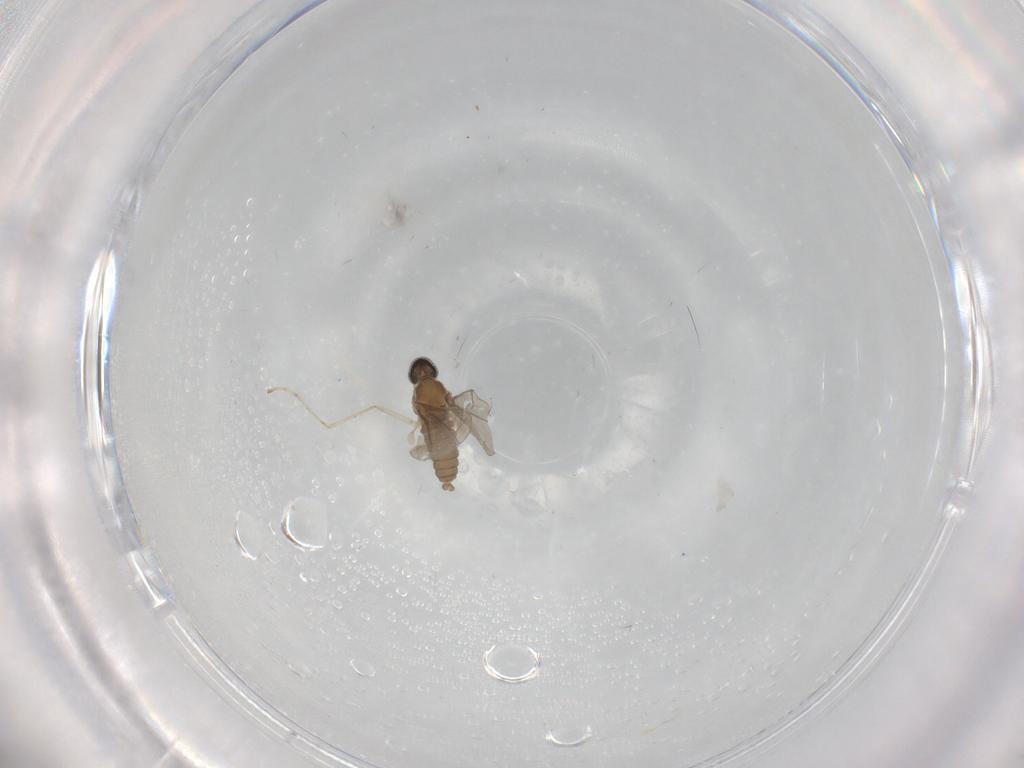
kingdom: Animalia
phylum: Arthropoda
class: Insecta
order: Diptera
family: Cecidomyiidae
